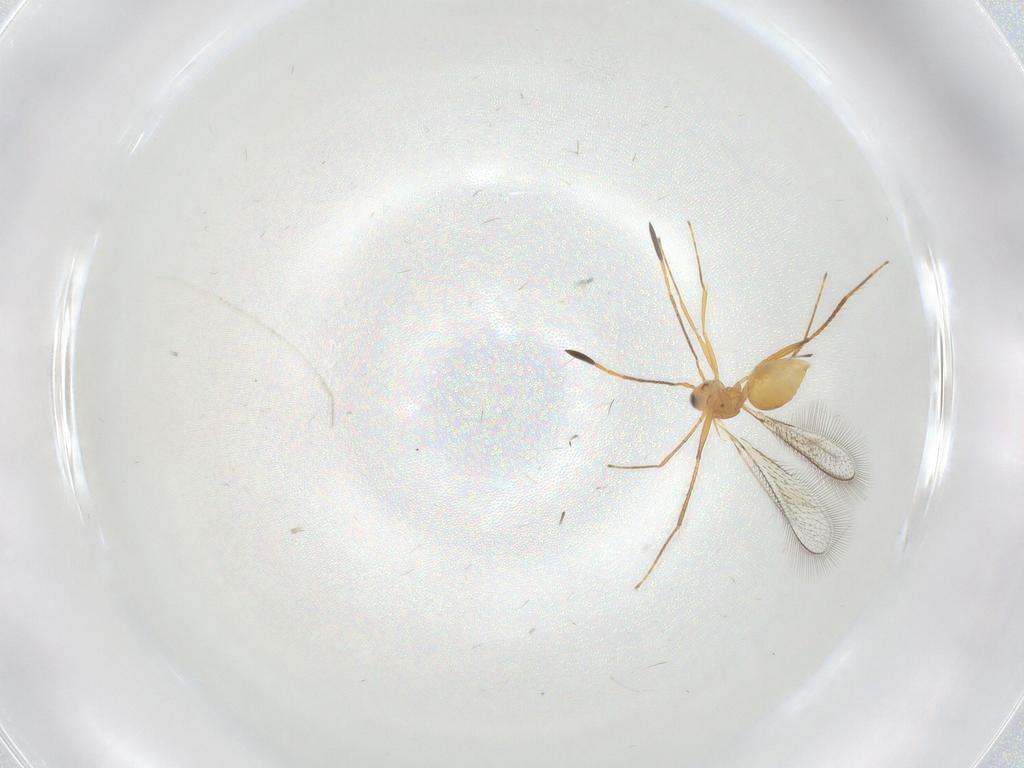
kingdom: Animalia
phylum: Arthropoda
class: Insecta
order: Hymenoptera
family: Mymaridae
